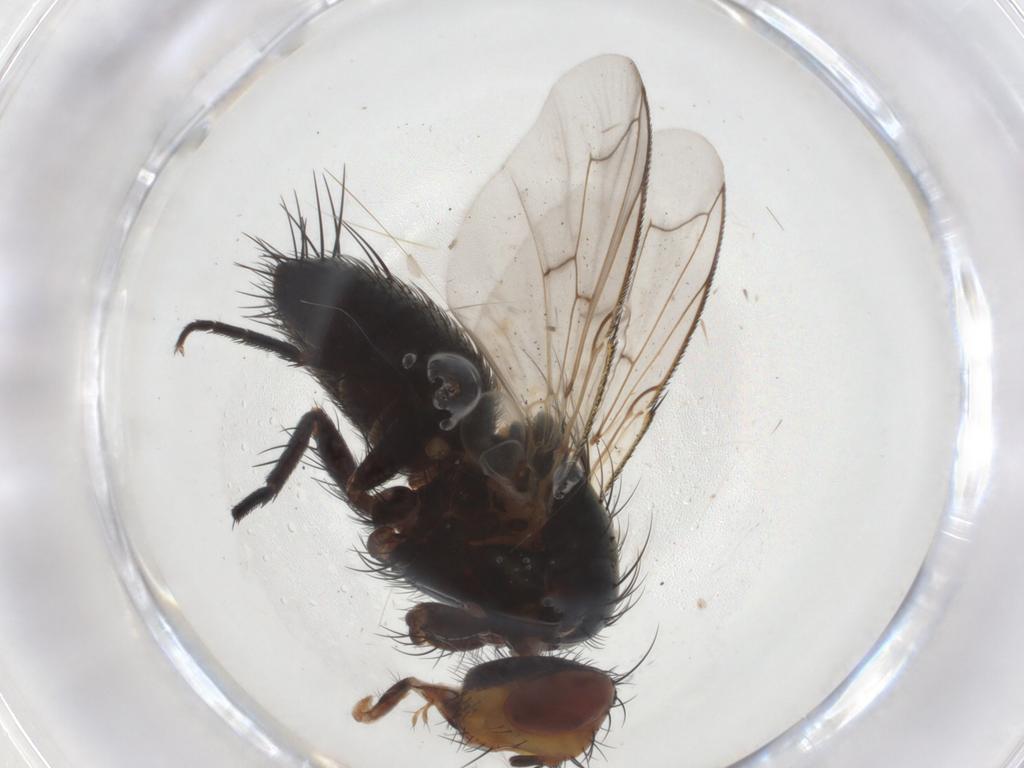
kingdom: Animalia
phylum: Arthropoda
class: Insecta
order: Diptera
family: Tachinidae
